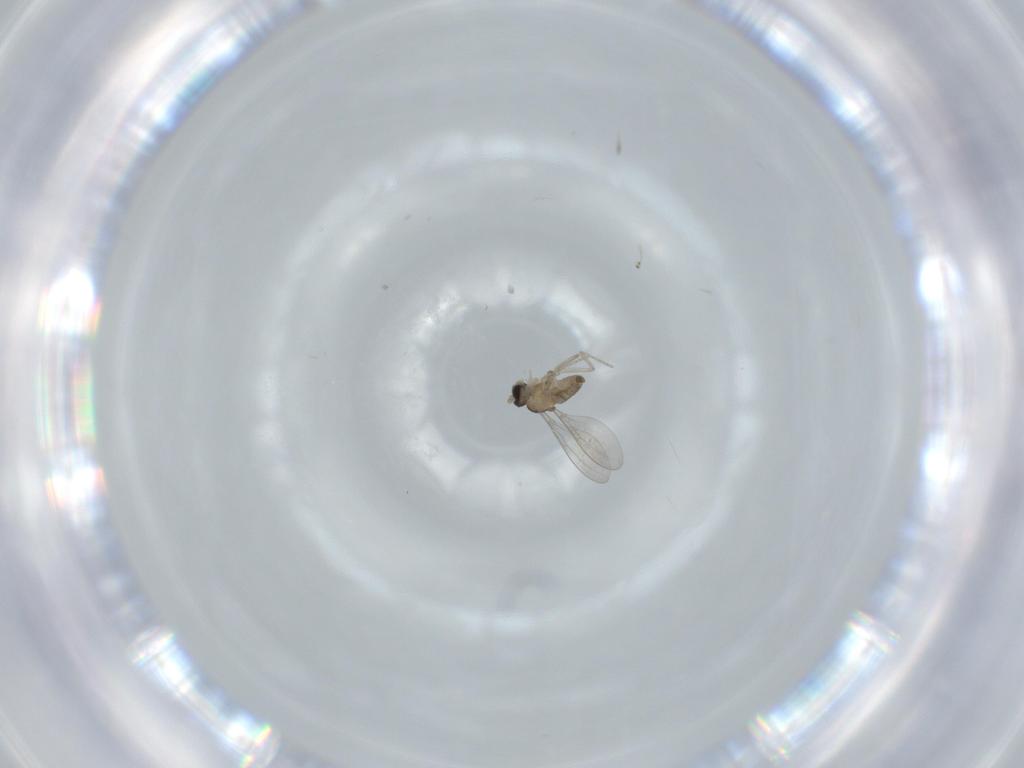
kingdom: Animalia
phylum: Arthropoda
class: Insecta
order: Diptera
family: Cecidomyiidae
